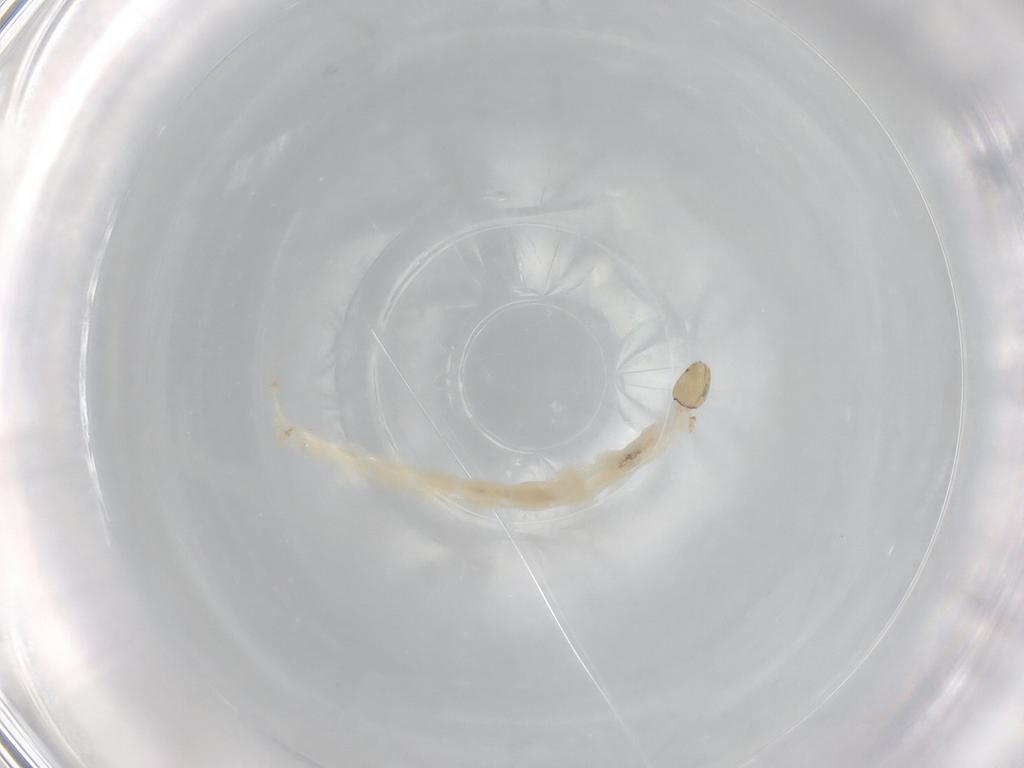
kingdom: Animalia
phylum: Arthropoda
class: Insecta
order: Diptera
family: Chironomidae
